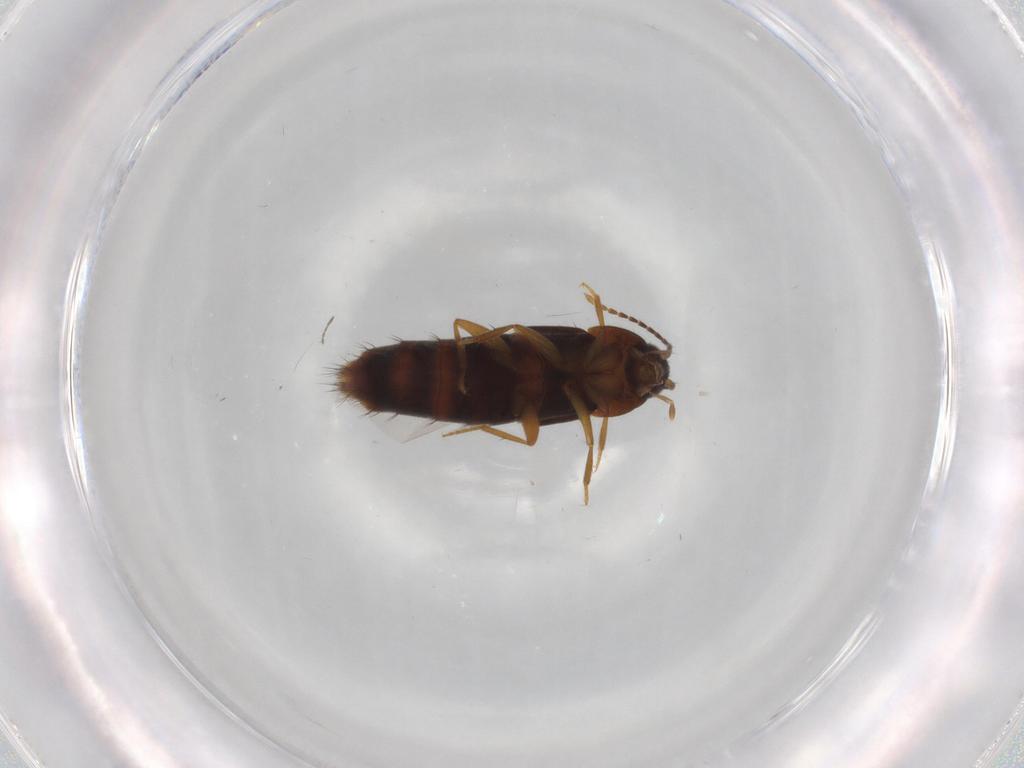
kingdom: Animalia
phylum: Arthropoda
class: Insecta
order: Coleoptera
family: Staphylinidae
